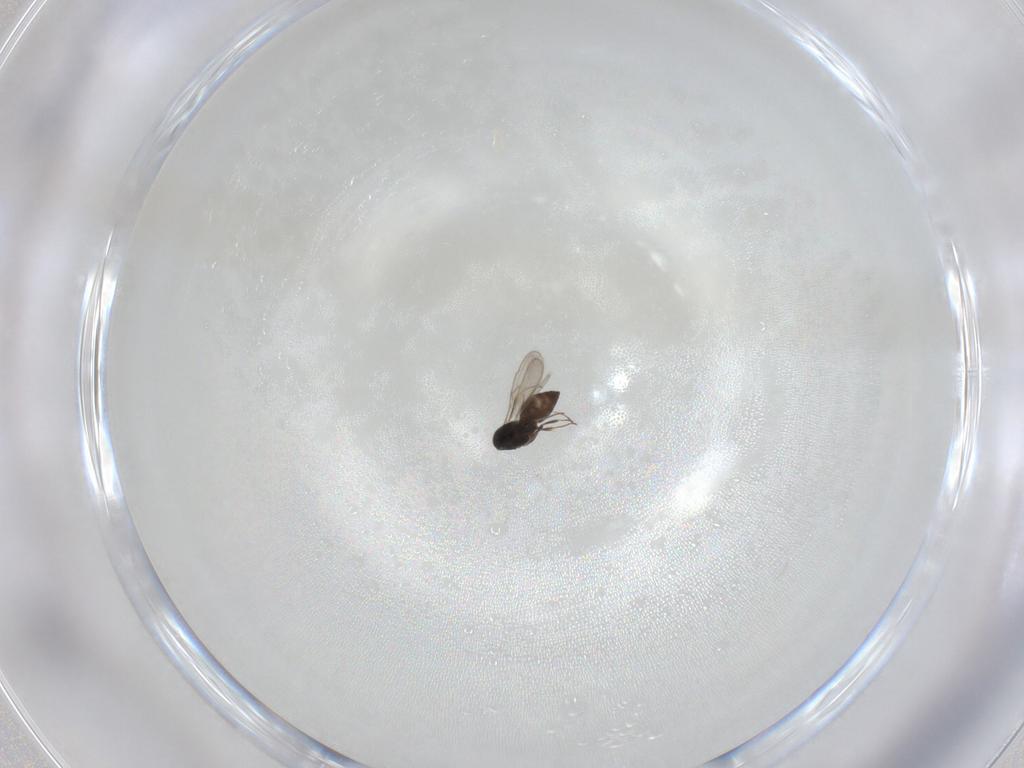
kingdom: Animalia
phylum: Arthropoda
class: Insecta
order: Hymenoptera
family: Scelionidae
